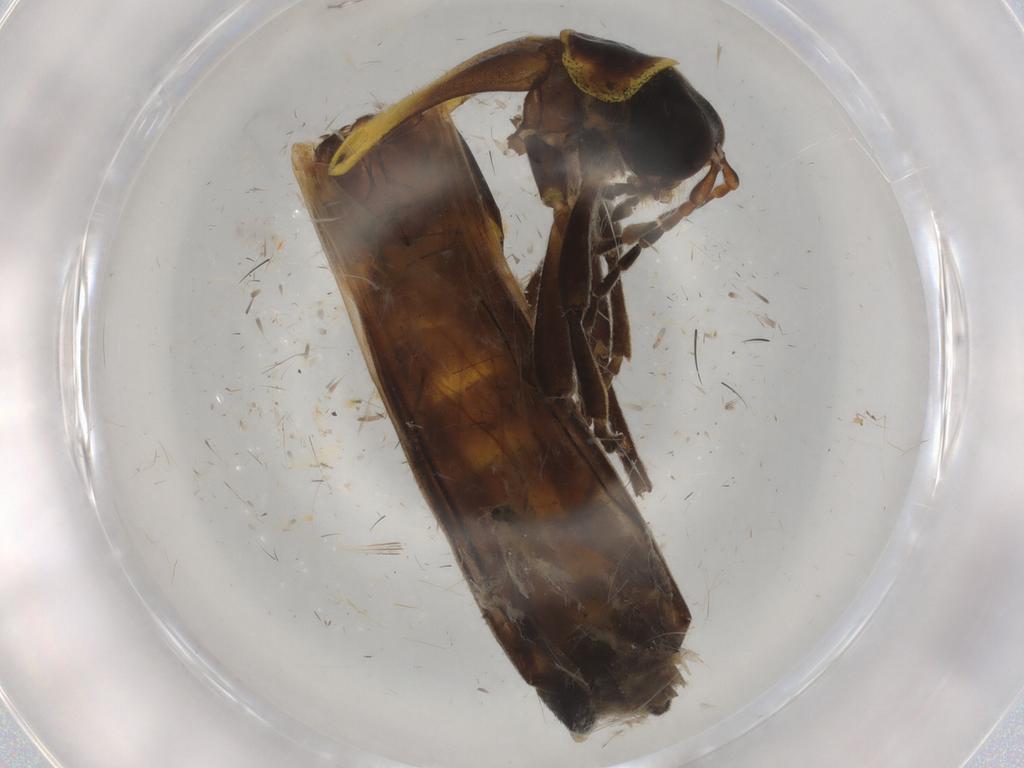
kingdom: Animalia
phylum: Arthropoda
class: Insecta
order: Coleoptera
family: Cantharidae
